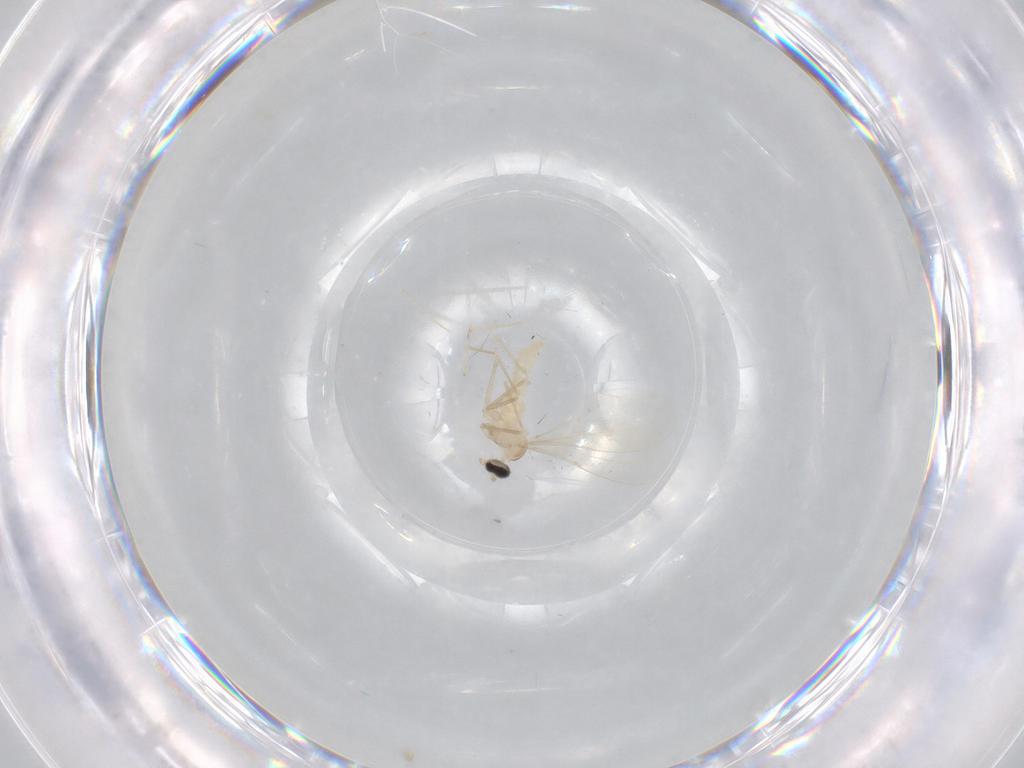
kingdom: Animalia
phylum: Arthropoda
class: Insecta
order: Diptera
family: Cecidomyiidae
